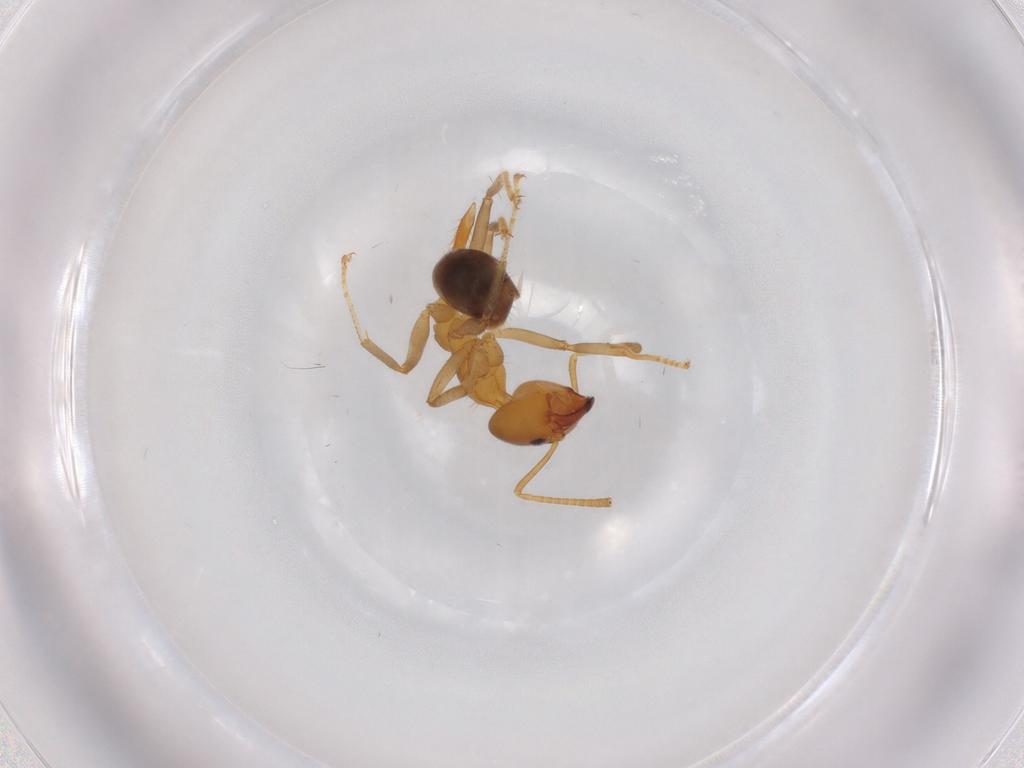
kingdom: Animalia
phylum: Arthropoda
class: Insecta
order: Hymenoptera
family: Formicidae
